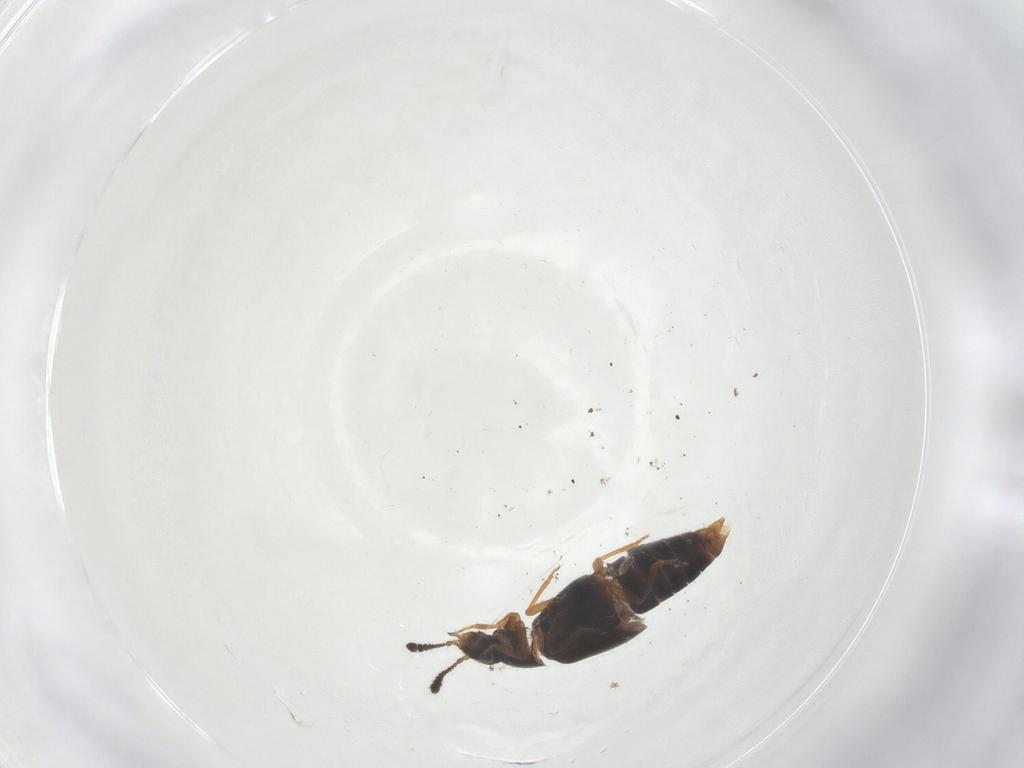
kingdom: Animalia
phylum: Arthropoda
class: Insecta
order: Coleoptera
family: Staphylinidae
